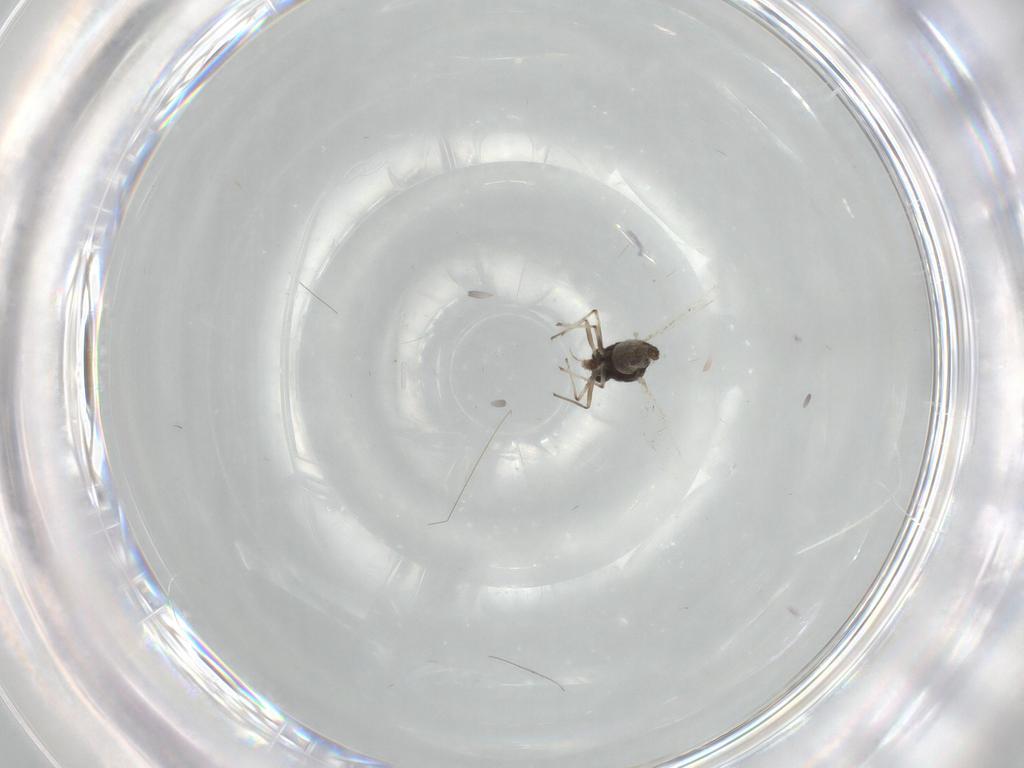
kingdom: Animalia
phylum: Arthropoda
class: Insecta
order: Diptera
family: Chironomidae
